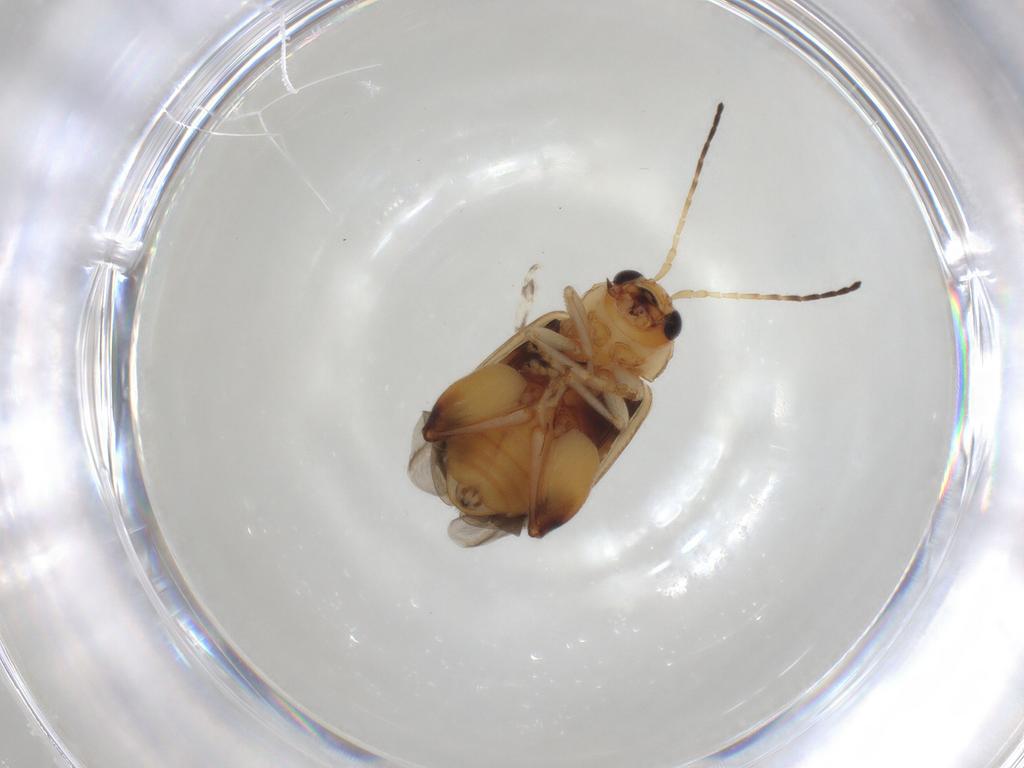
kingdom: Animalia
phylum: Arthropoda
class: Insecta
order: Coleoptera
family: Chrysomelidae
